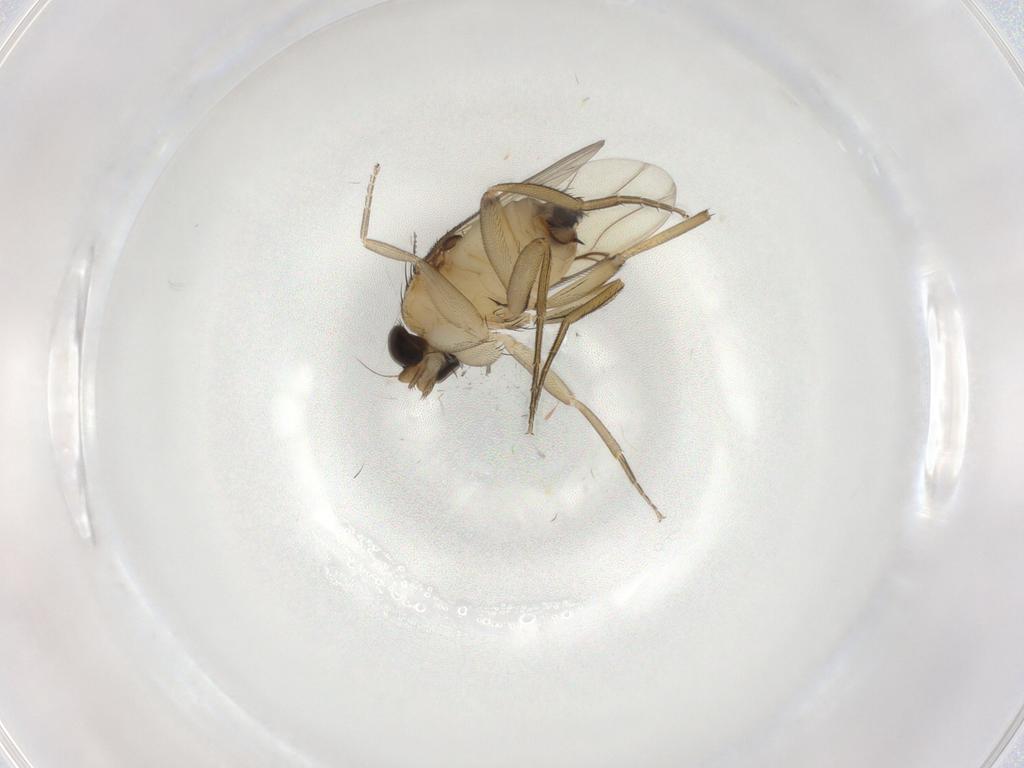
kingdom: Animalia
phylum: Arthropoda
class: Insecta
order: Diptera
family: Phoridae
